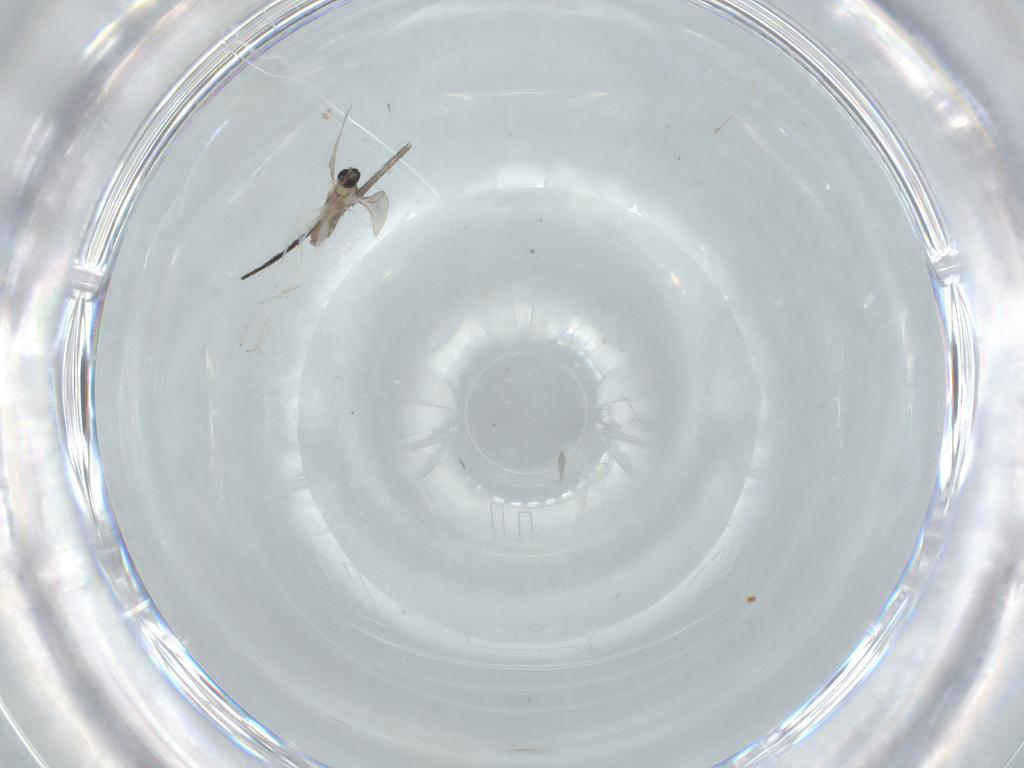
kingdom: Animalia
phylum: Arthropoda
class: Insecta
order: Diptera
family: Cecidomyiidae
